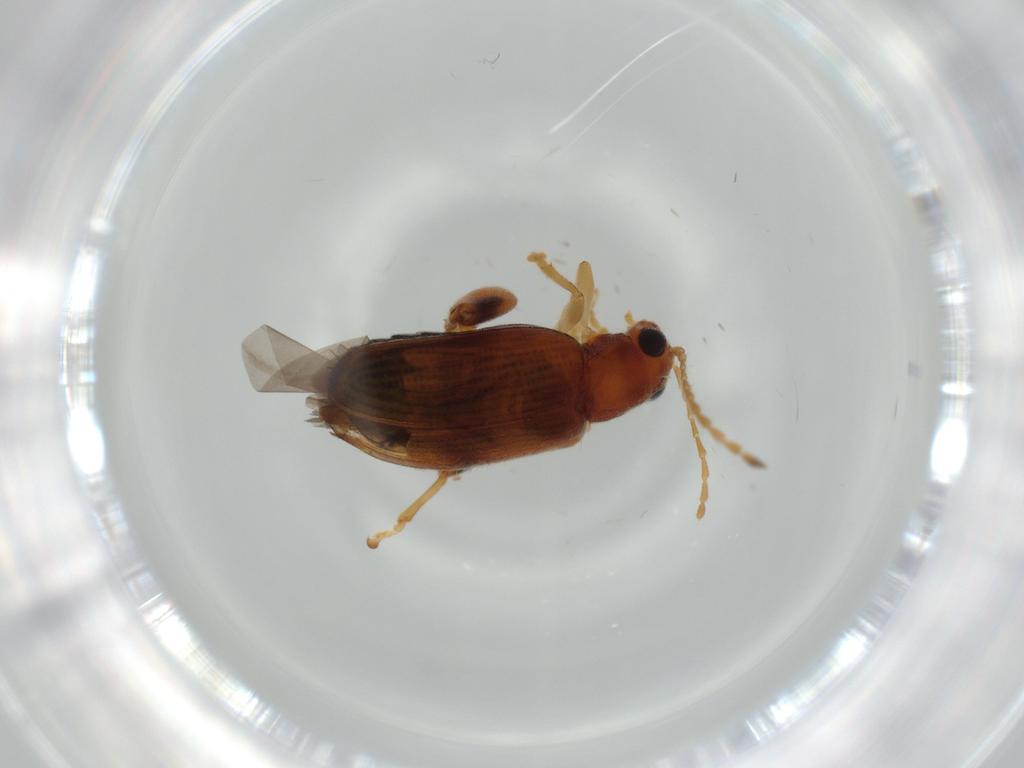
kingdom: Animalia
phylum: Arthropoda
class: Insecta
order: Coleoptera
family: Chrysomelidae
